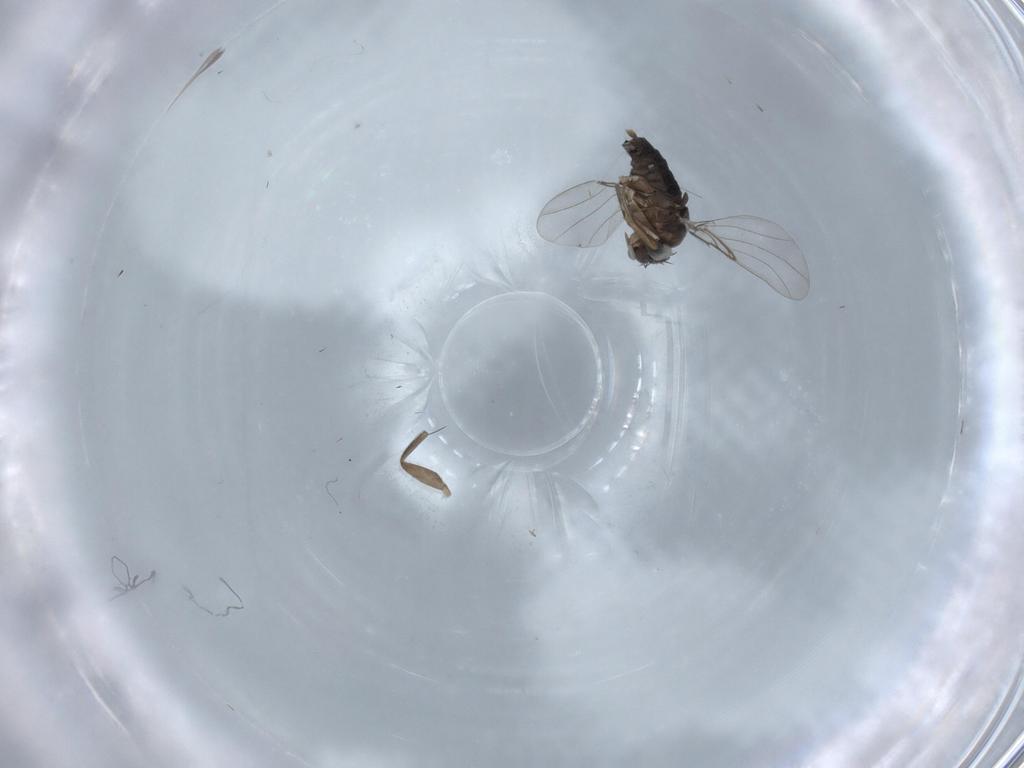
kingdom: Animalia
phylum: Arthropoda
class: Insecta
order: Diptera
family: Phoridae
